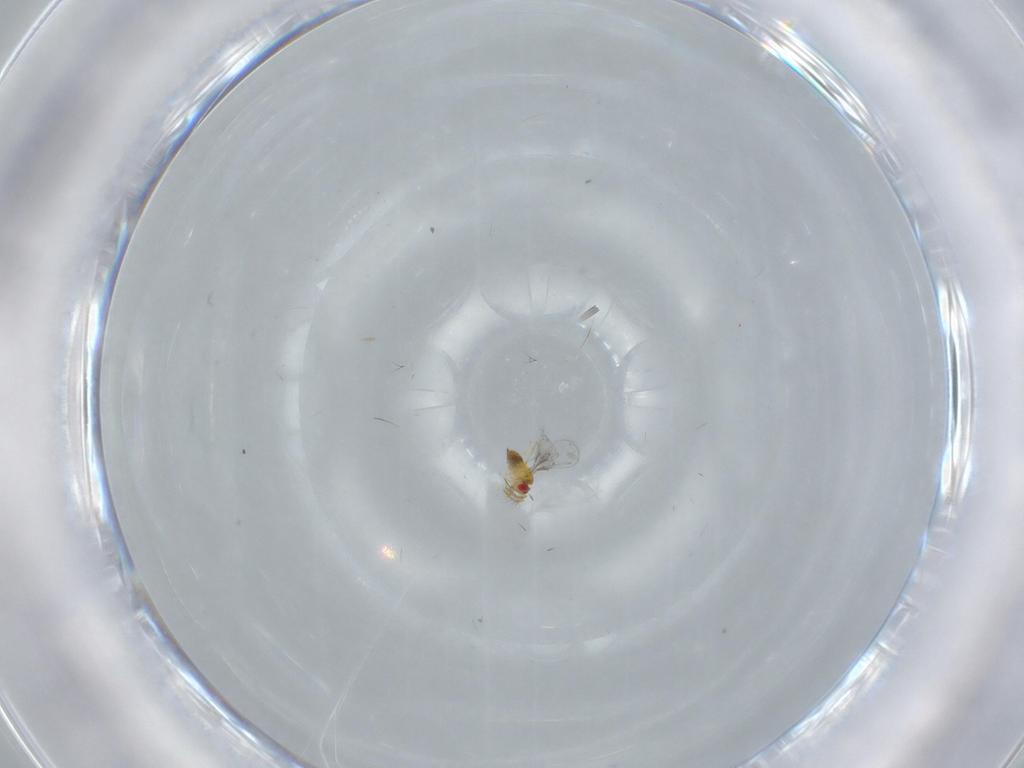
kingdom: Animalia
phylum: Arthropoda
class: Insecta
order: Hymenoptera
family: Trichogrammatidae
